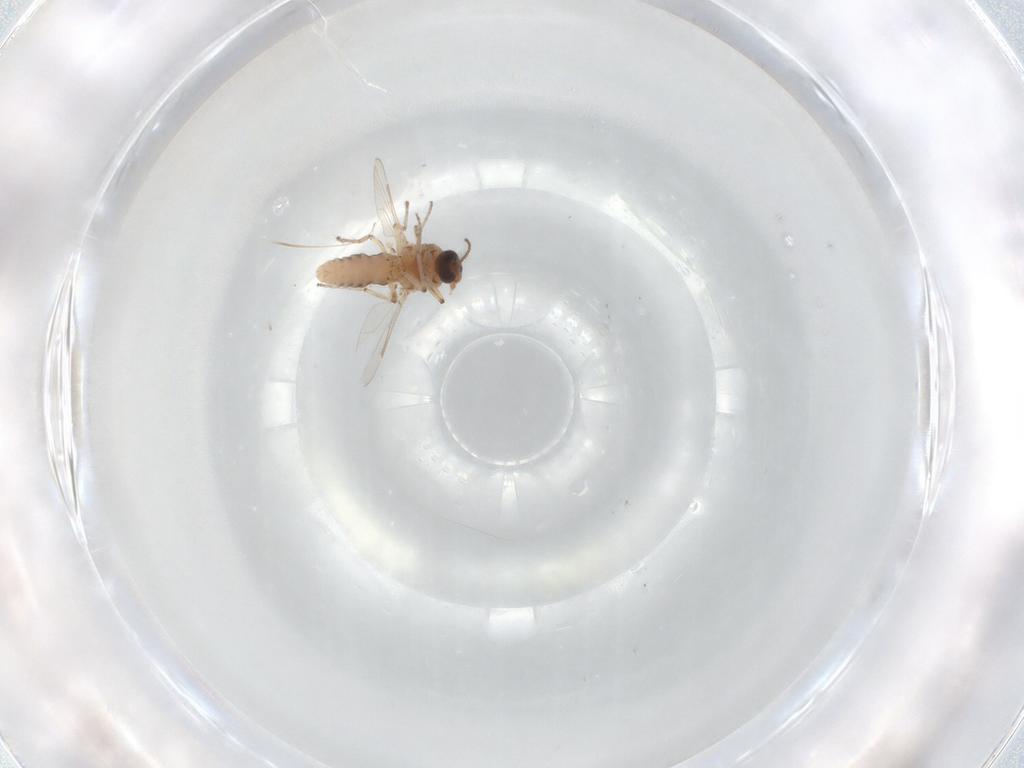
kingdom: Animalia
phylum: Arthropoda
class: Insecta
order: Diptera
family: Ceratopogonidae
